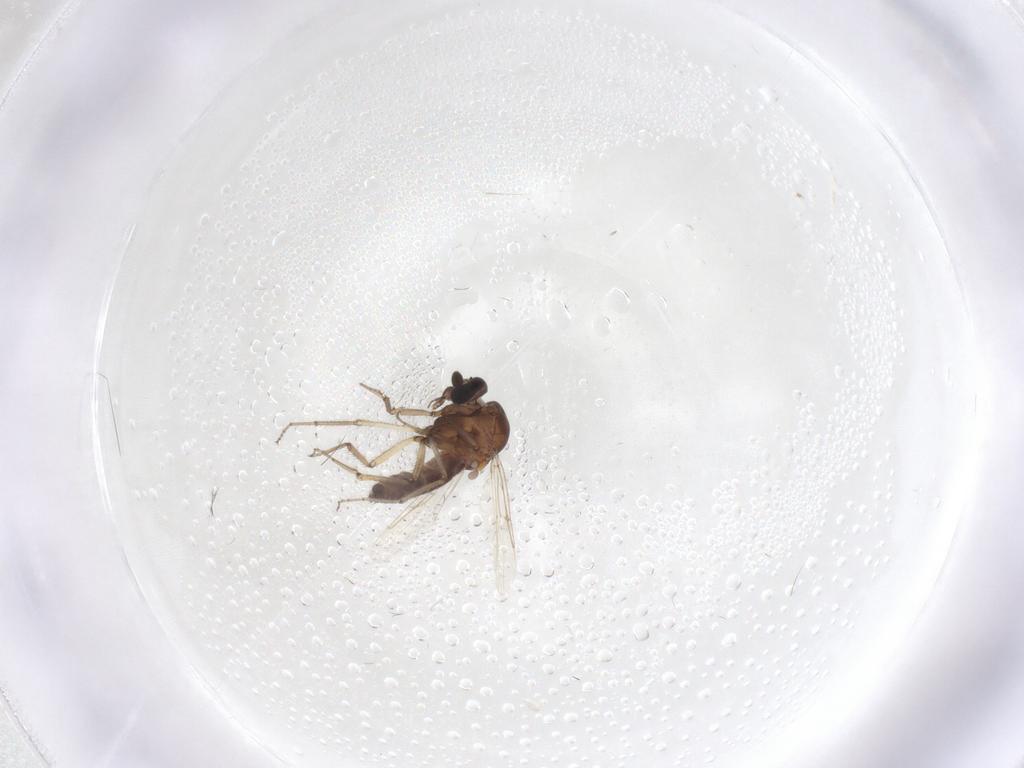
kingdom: Animalia
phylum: Arthropoda
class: Insecta
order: Diptera
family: Ceratopogonidae
